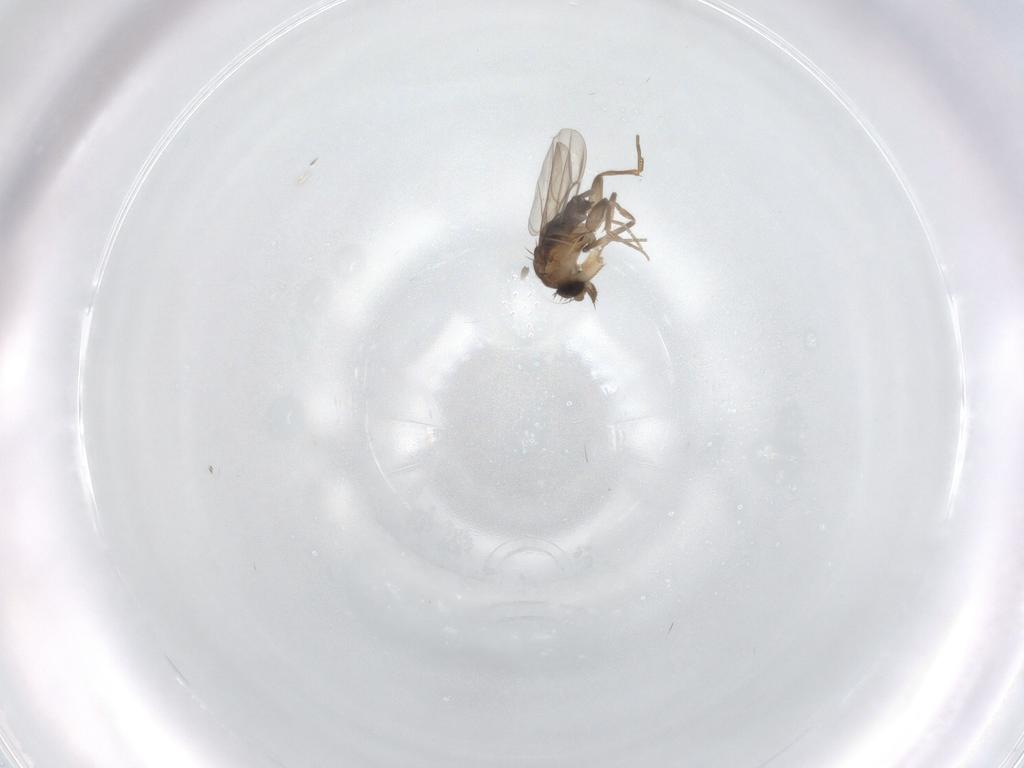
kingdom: Animalia
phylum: Arthropoda
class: Insecta
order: Diptera
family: Phoridae
